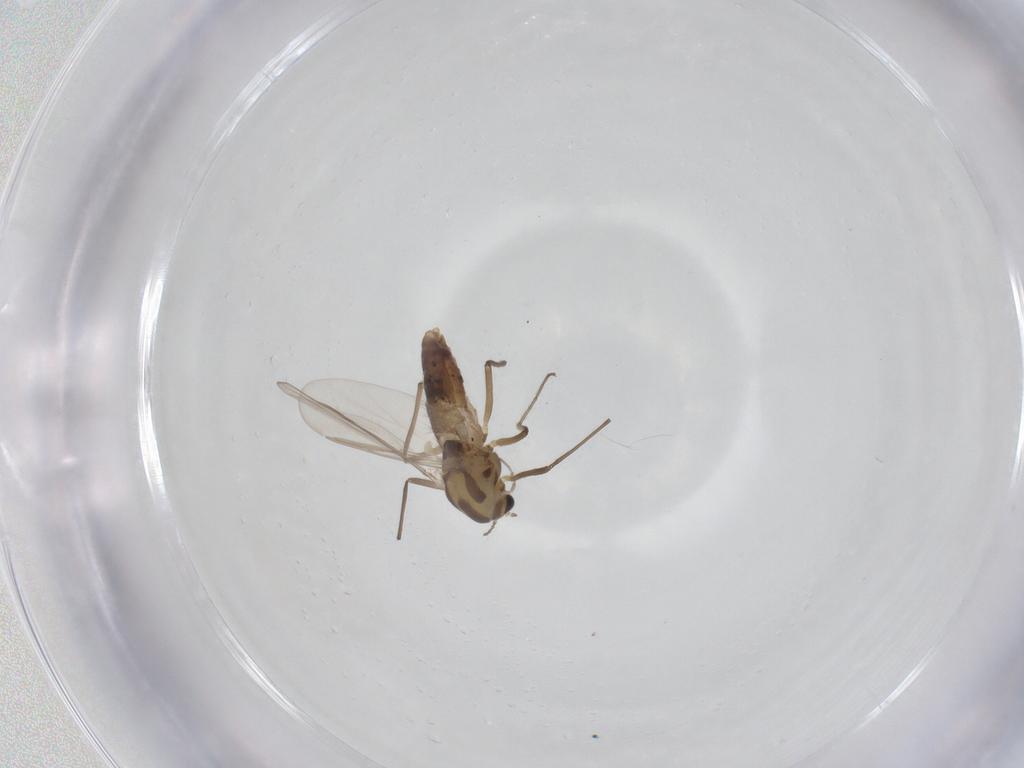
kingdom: Animalia
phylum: Arthropoda
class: Insecta
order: Diptera
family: Chironomidae
